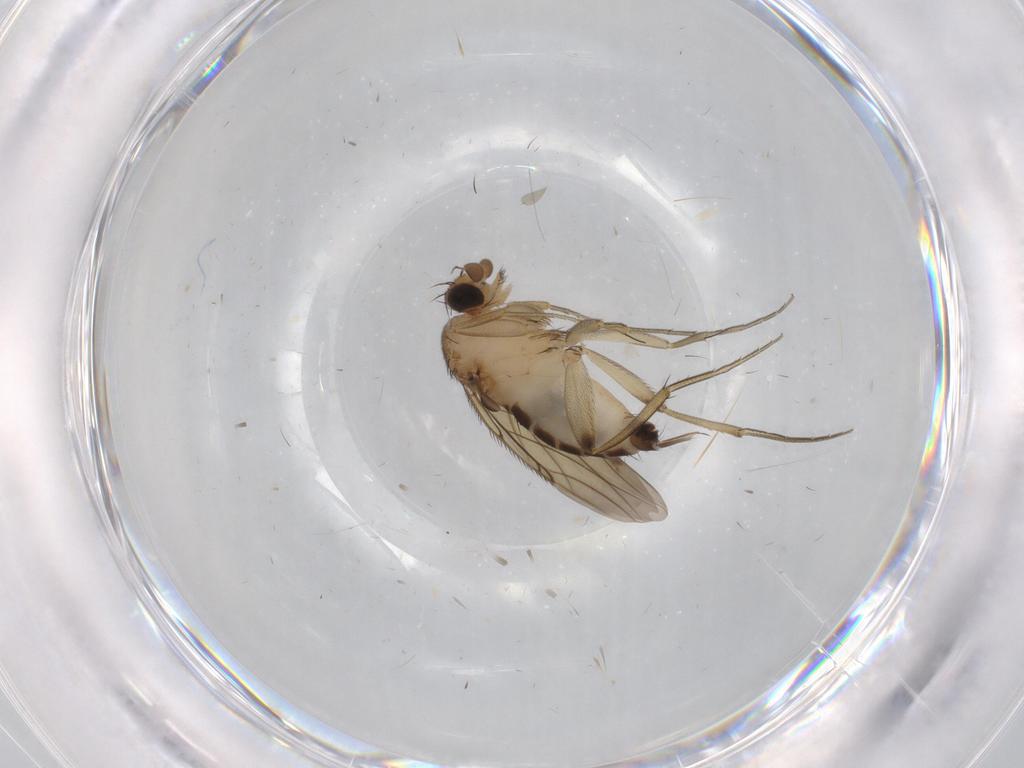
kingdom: Animalia
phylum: Arthropoda
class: Insecta
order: Diptera
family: Phoridae
